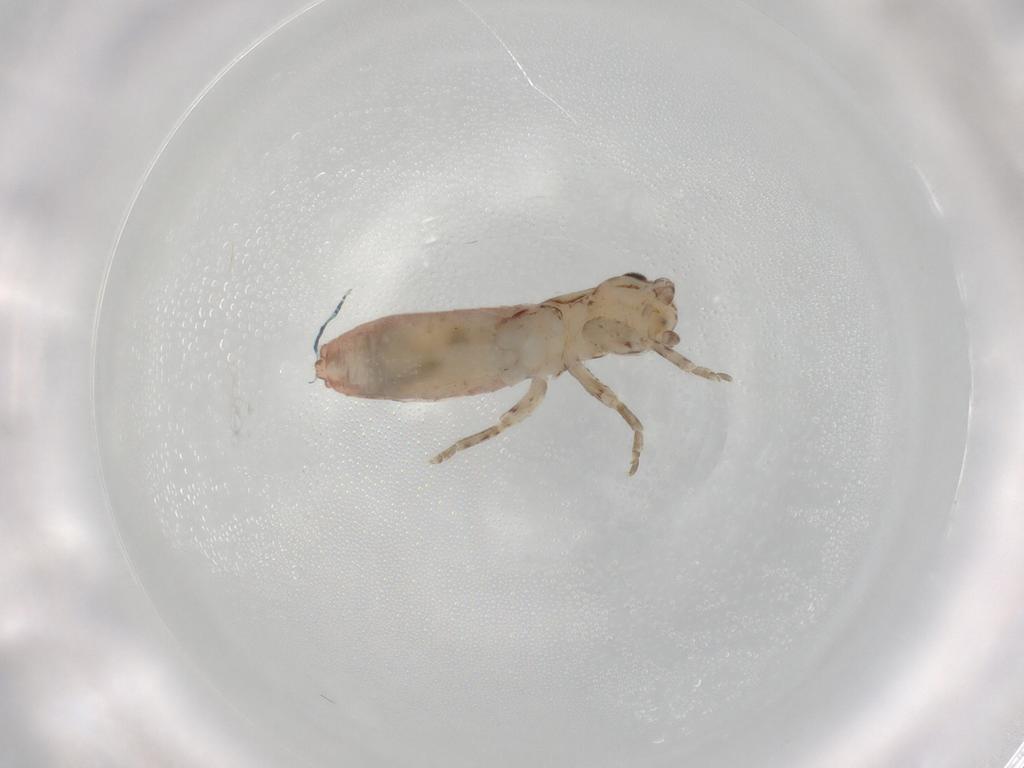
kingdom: Animalia
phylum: Arthropoda
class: Insecta
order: Orthoptera
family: Mogoplistidae
